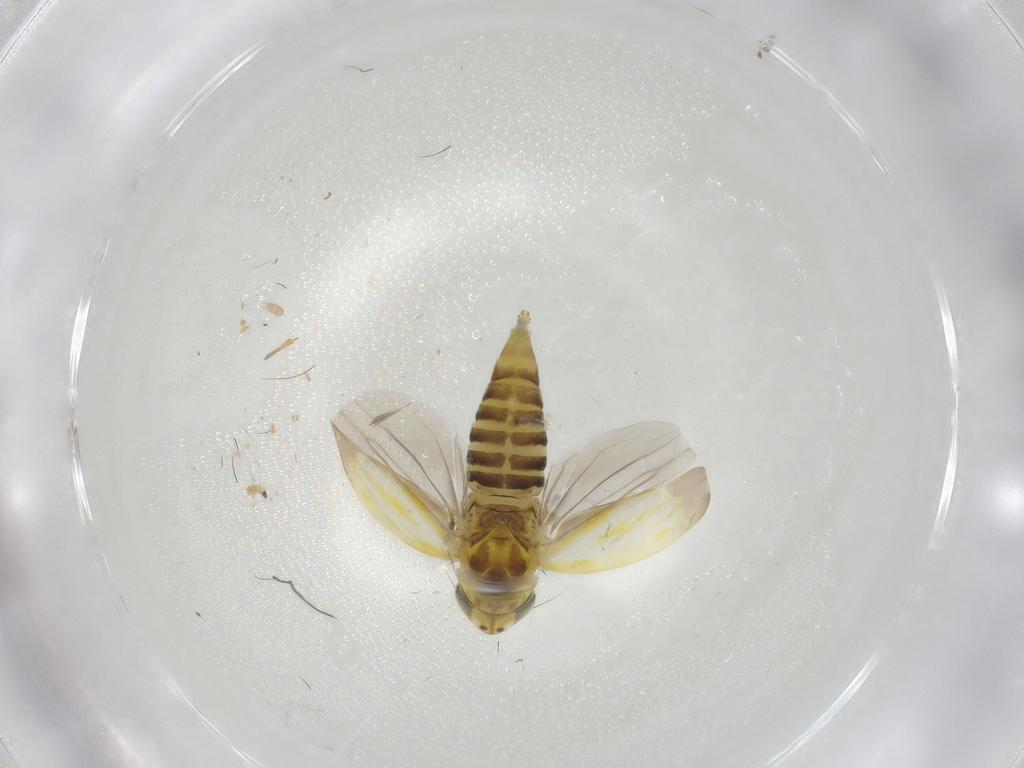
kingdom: Animalia
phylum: Arthropoda
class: Insecta
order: Hemiptera
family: Cicadellidae
